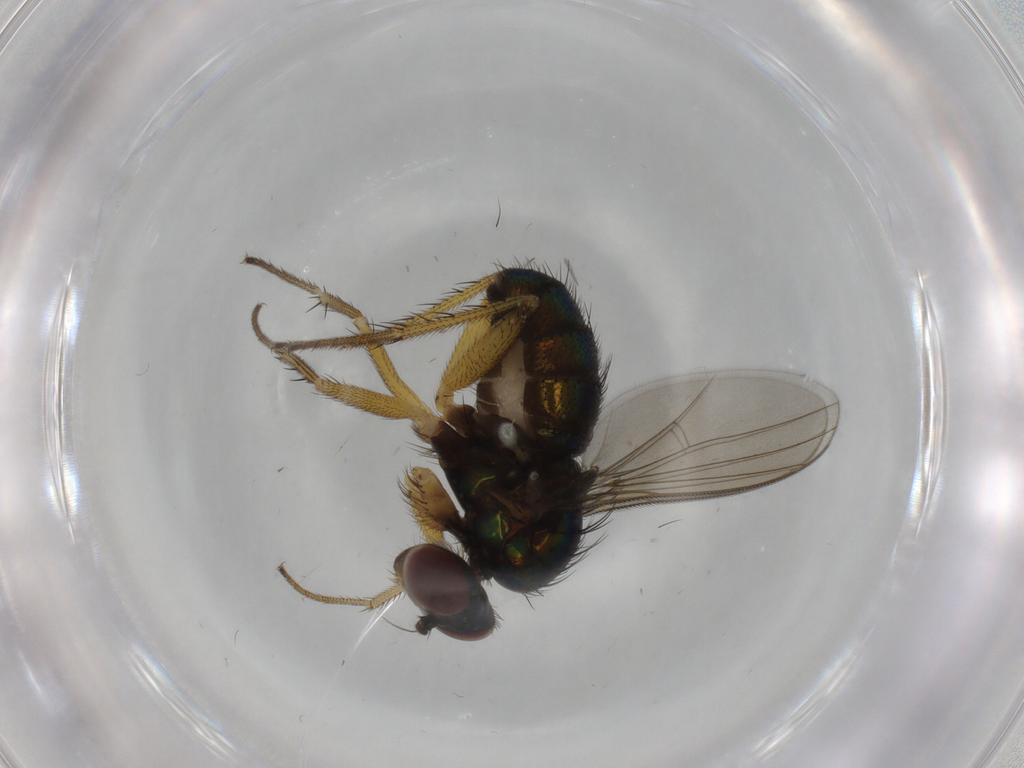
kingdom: Animalia
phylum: Arthropoda
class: Insecta
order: Diptera
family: Dolichopodidae
